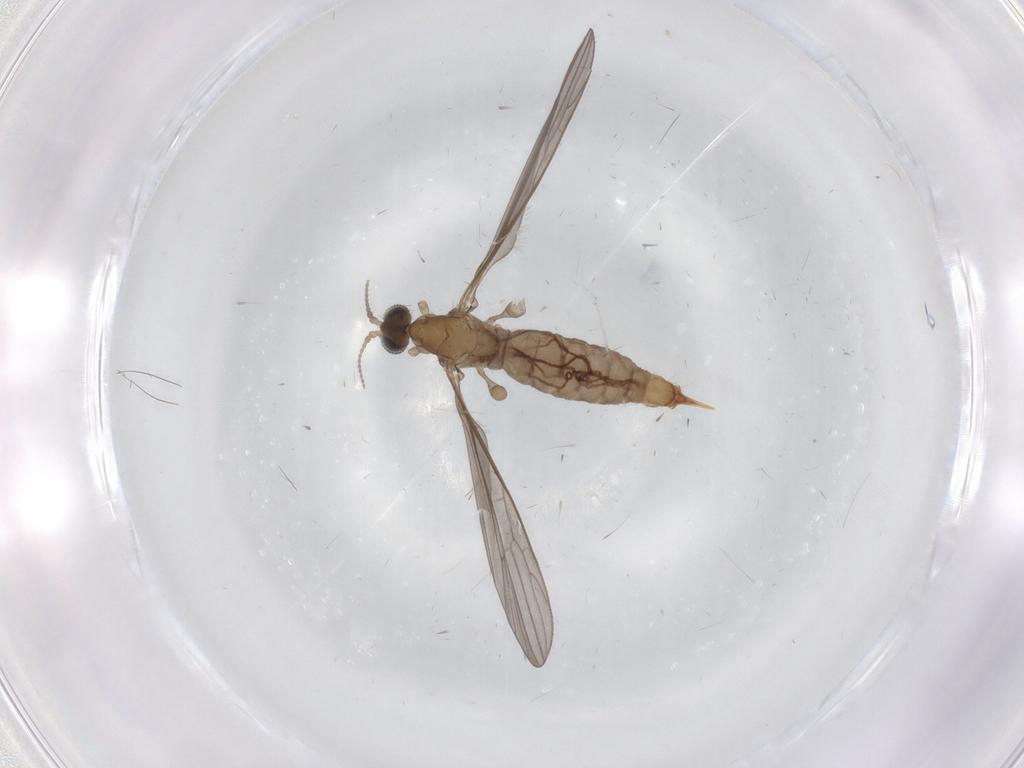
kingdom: Animalia
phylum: Arthropoda
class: Insecta
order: Diptera
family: Limoniidae
